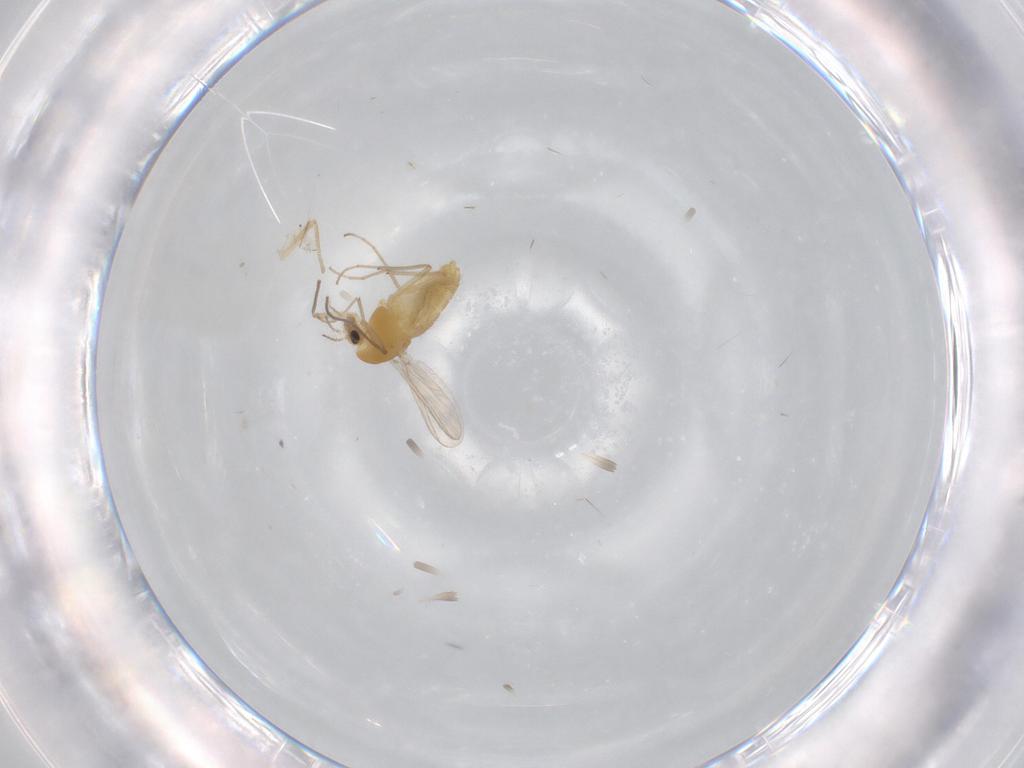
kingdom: Animalia
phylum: Arthropoda
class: Insecta
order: Diptera
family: Chironomidae
